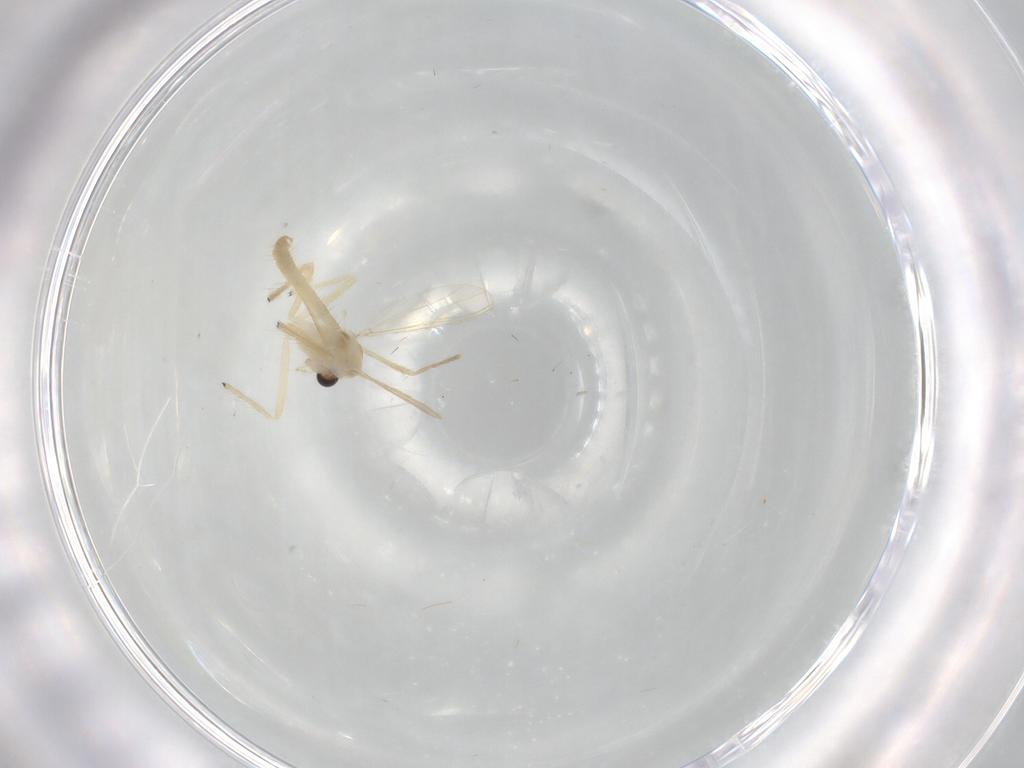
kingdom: Animalia
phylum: Arthropoda
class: Insecta
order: Diptera
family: Chironomidae
